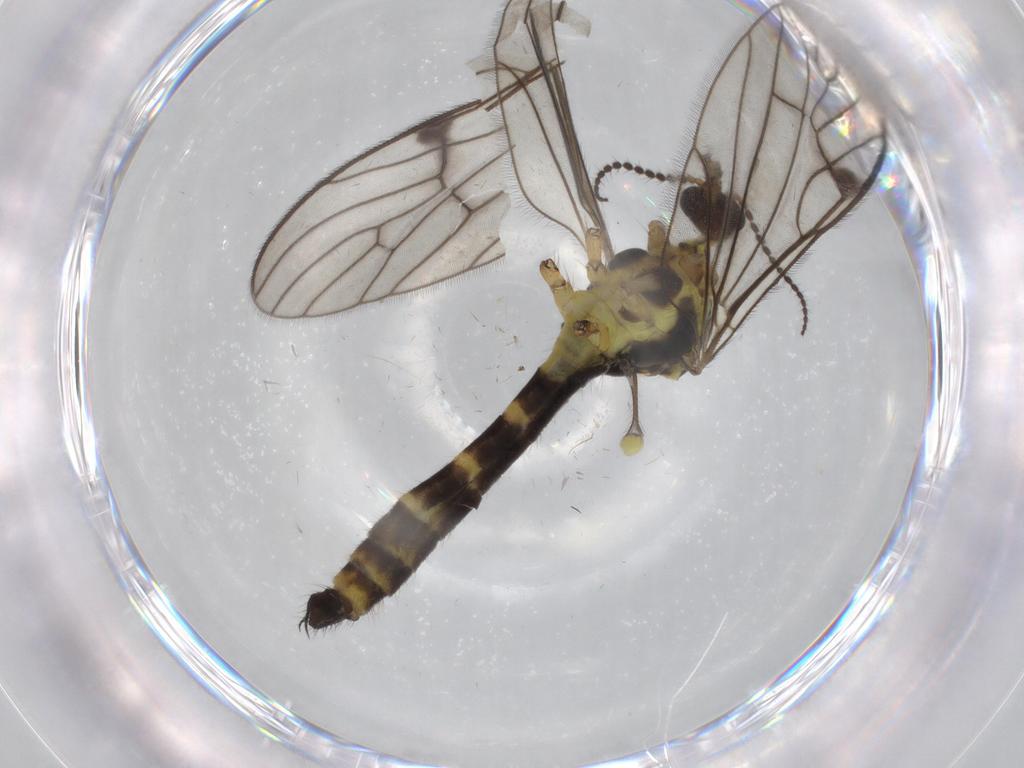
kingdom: Animalia
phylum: Arthropoda
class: Insecta
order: Diptera
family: Limoniidae
